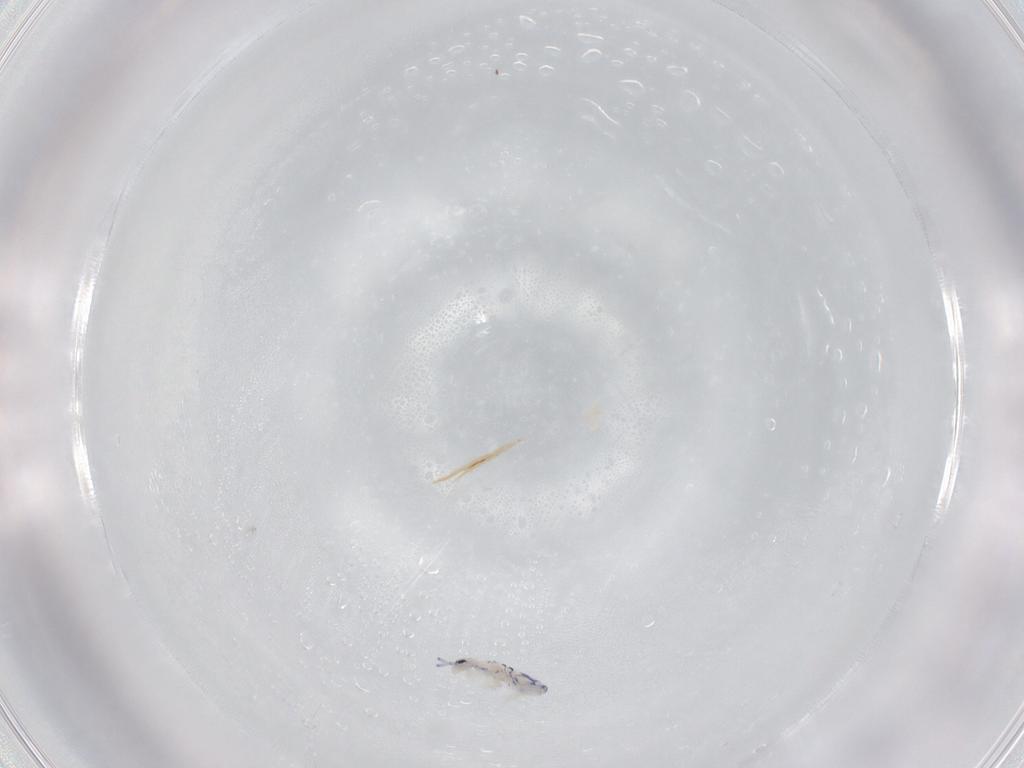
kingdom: Animalia
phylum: Arthropoda
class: Collembola
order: Entomobryomorpha
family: Entomobryidae
